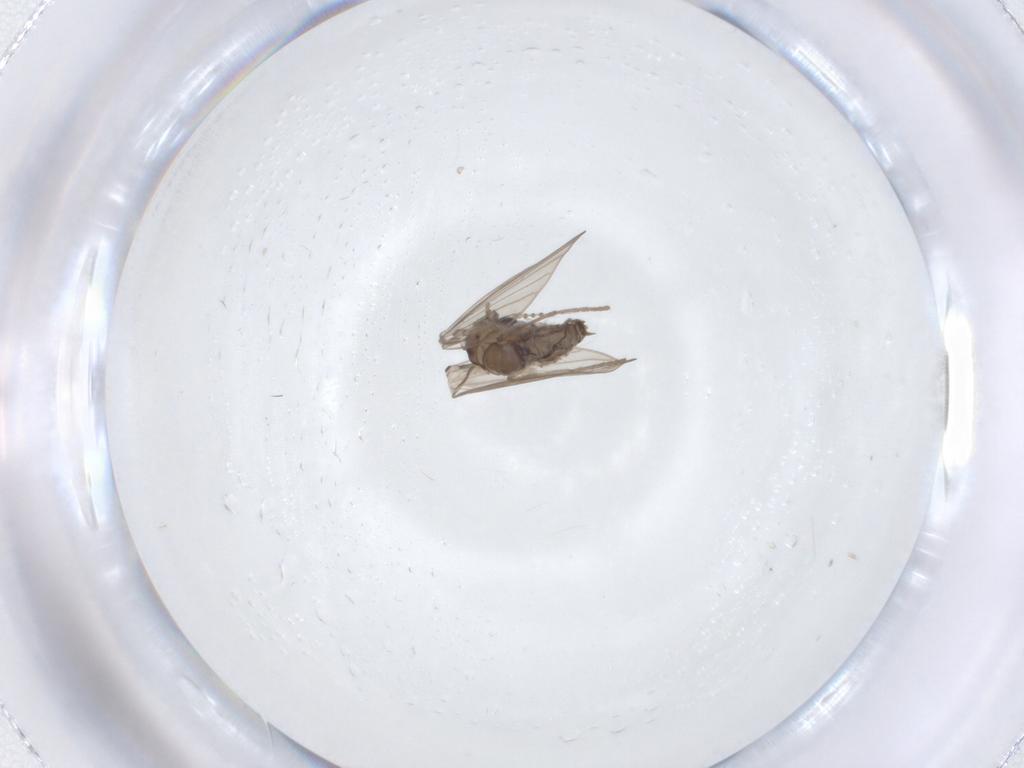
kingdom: Animalia
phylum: Arthropoda
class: Insecta
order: Diptera
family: Psychodidae
